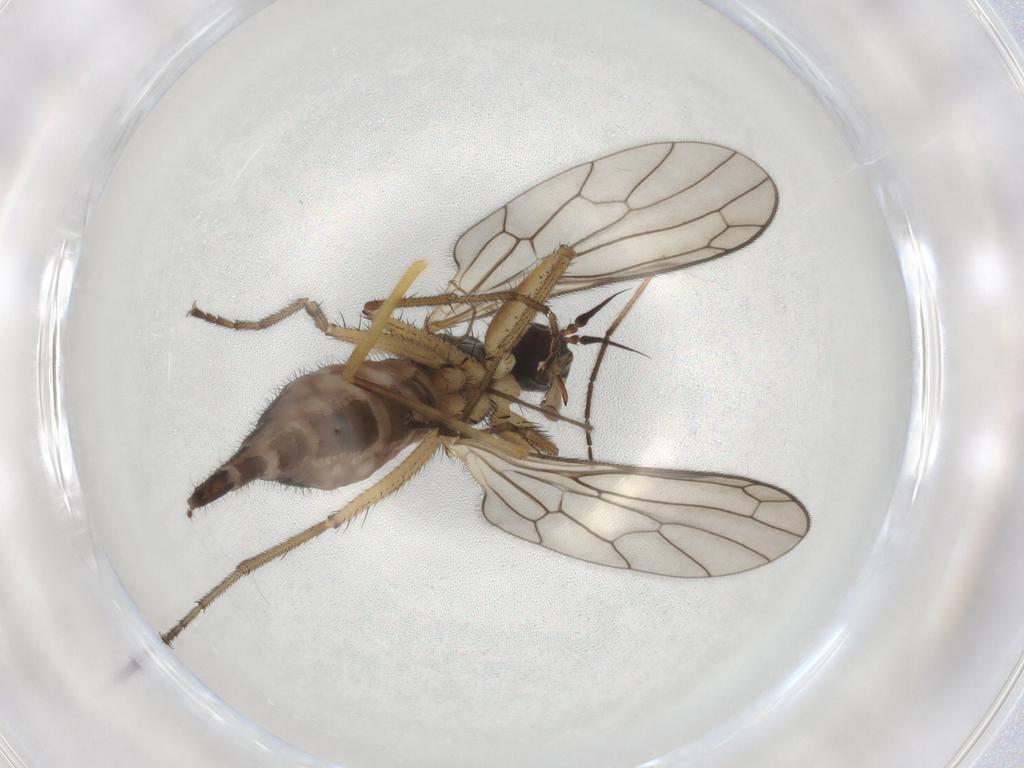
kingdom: Animalia
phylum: Arthropoda
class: Insecta
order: Diptera
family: Empididae
